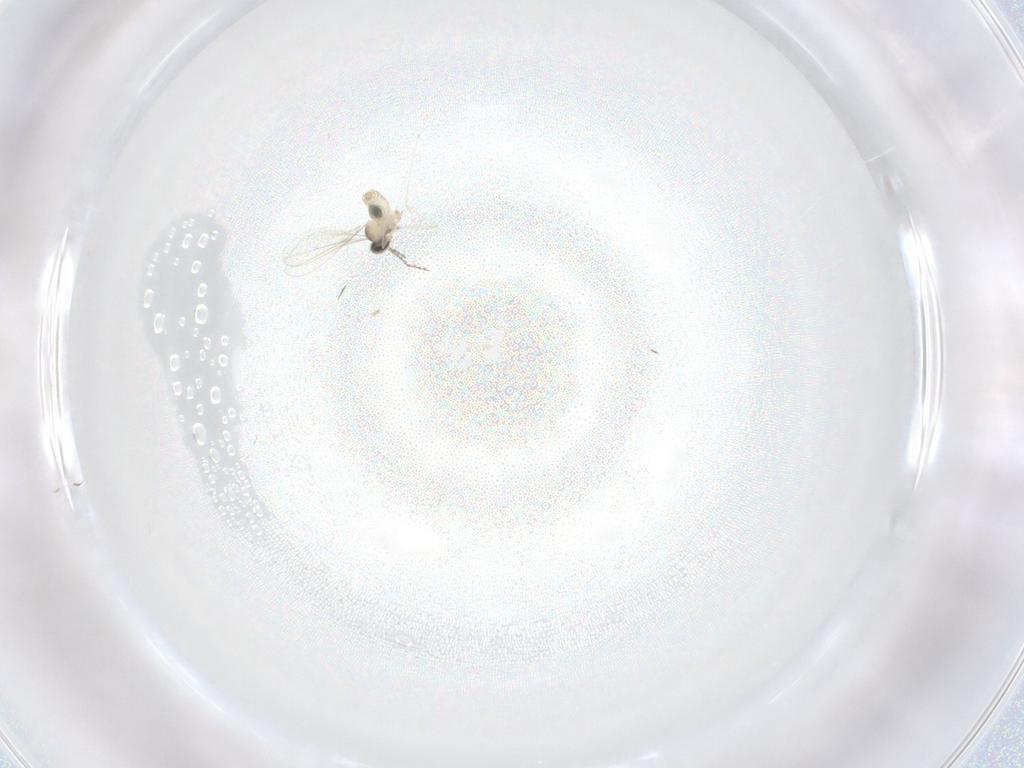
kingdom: Animalia
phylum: Arthropoda
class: Insecta
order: Diptera
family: Cecidomyiidae
